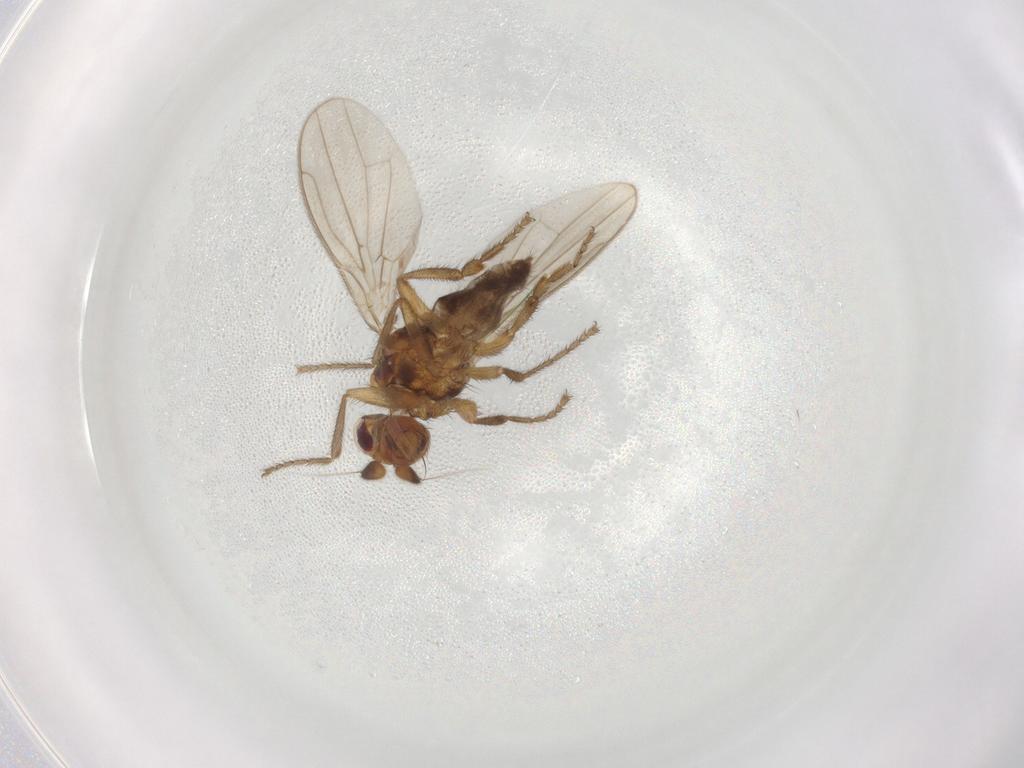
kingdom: Animalia
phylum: Arthropoda
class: Insecta
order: Diptera
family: Sphaeroceridae
